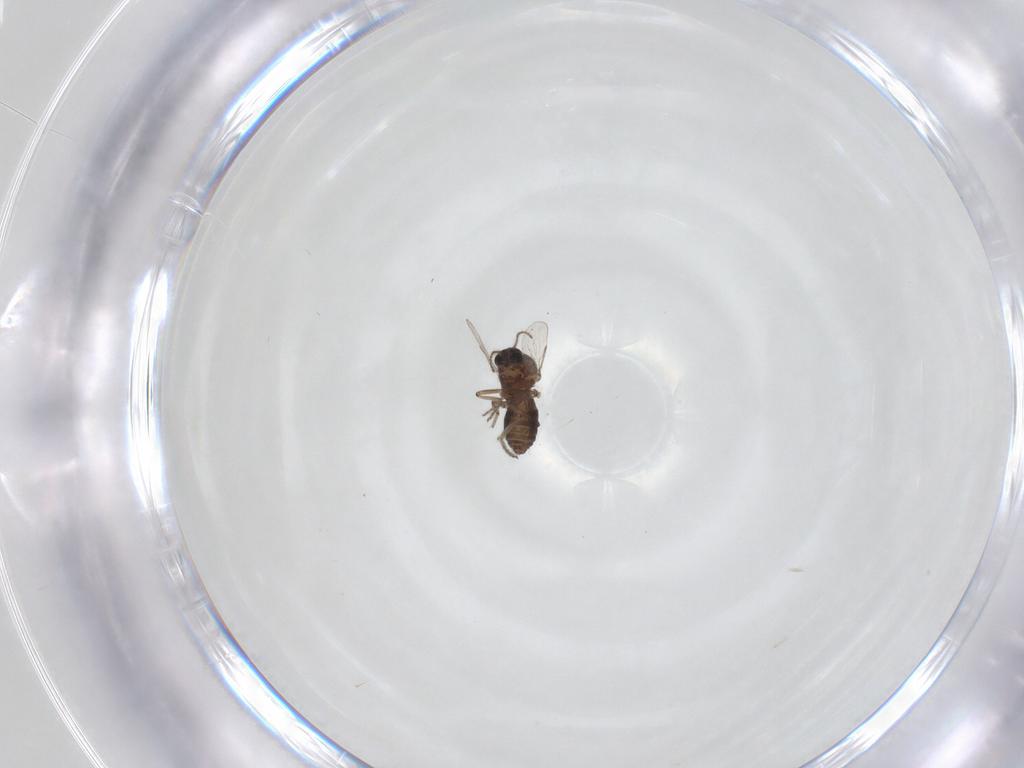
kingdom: Animalia
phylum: Arthropoda
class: Insecta
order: Diptera
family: Ceratopogonidae
